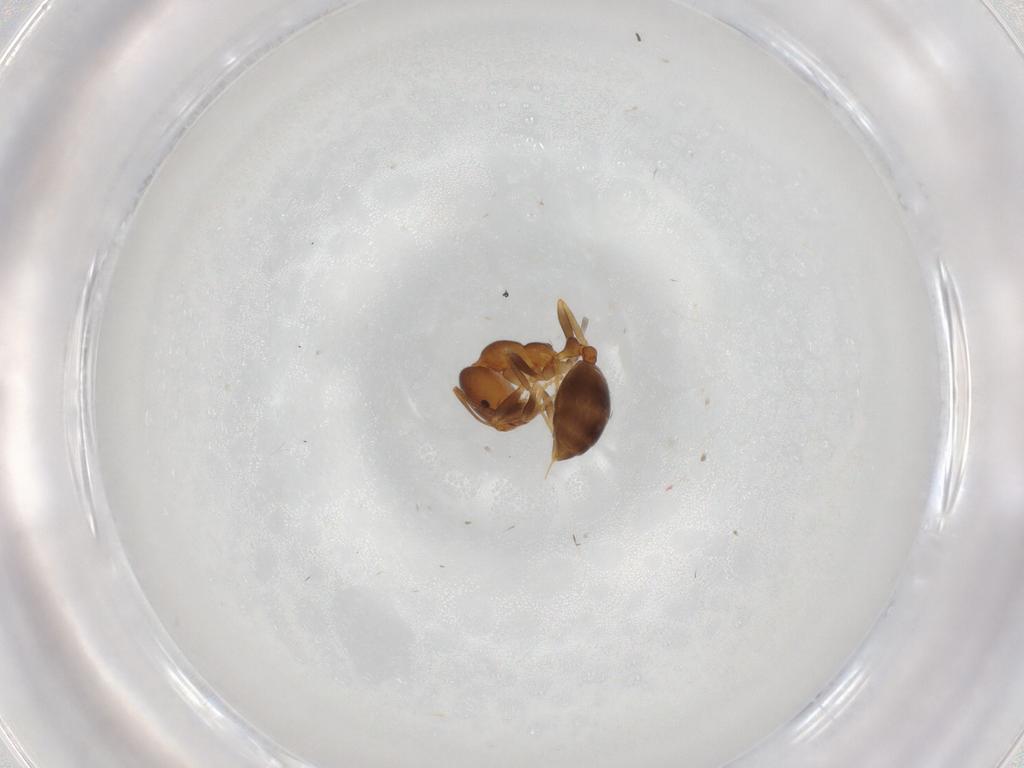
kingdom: Animalia
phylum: Arthropoda
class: Insecta
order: Hymenoptera
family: Formicidae
